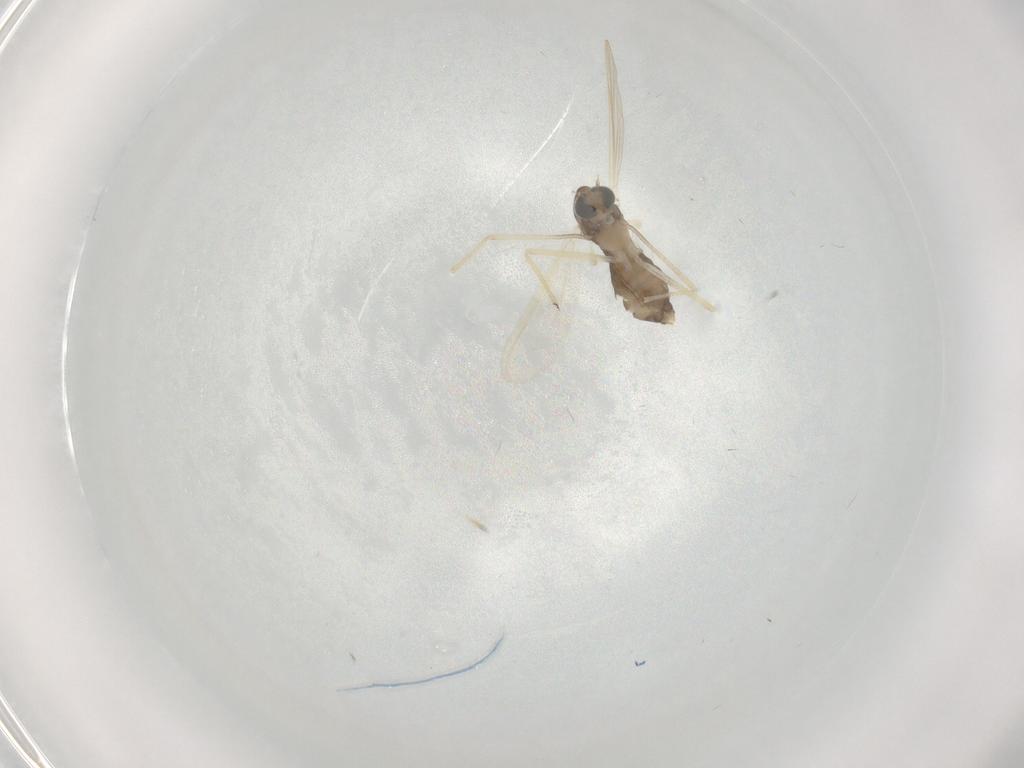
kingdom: Animalia
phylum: Arthropoda
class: Insecta
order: Diptera
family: Chironomidae
